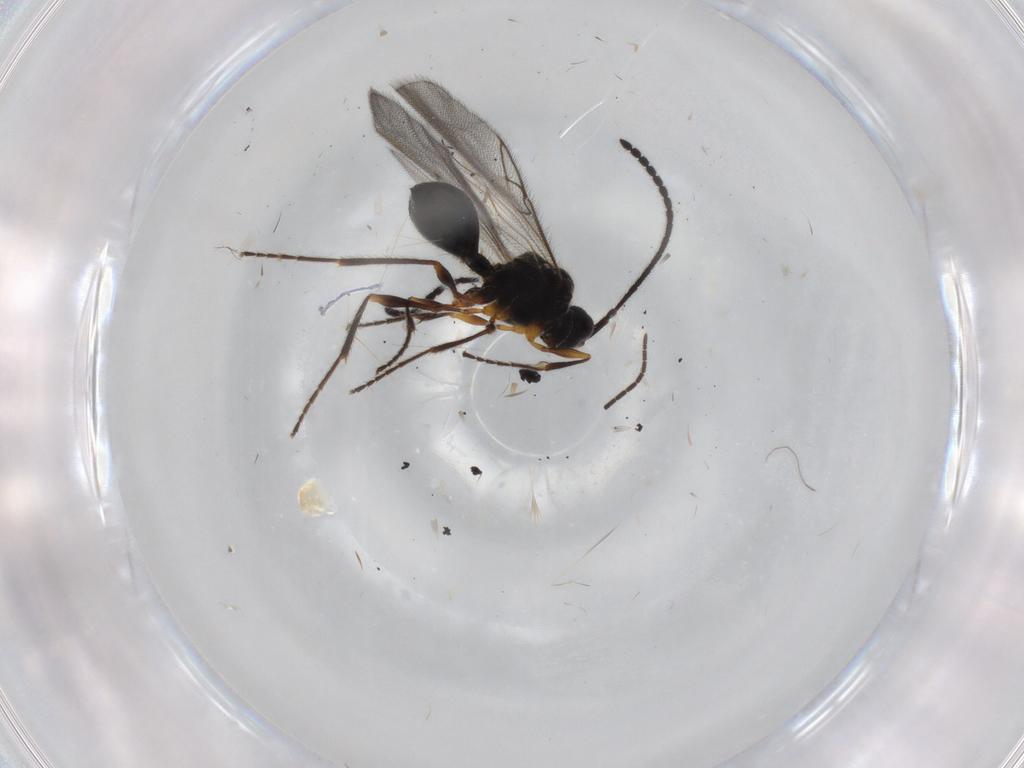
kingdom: Animalia
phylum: Arthropoda
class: Insecta
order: Hymenoptera
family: Diapriidae
